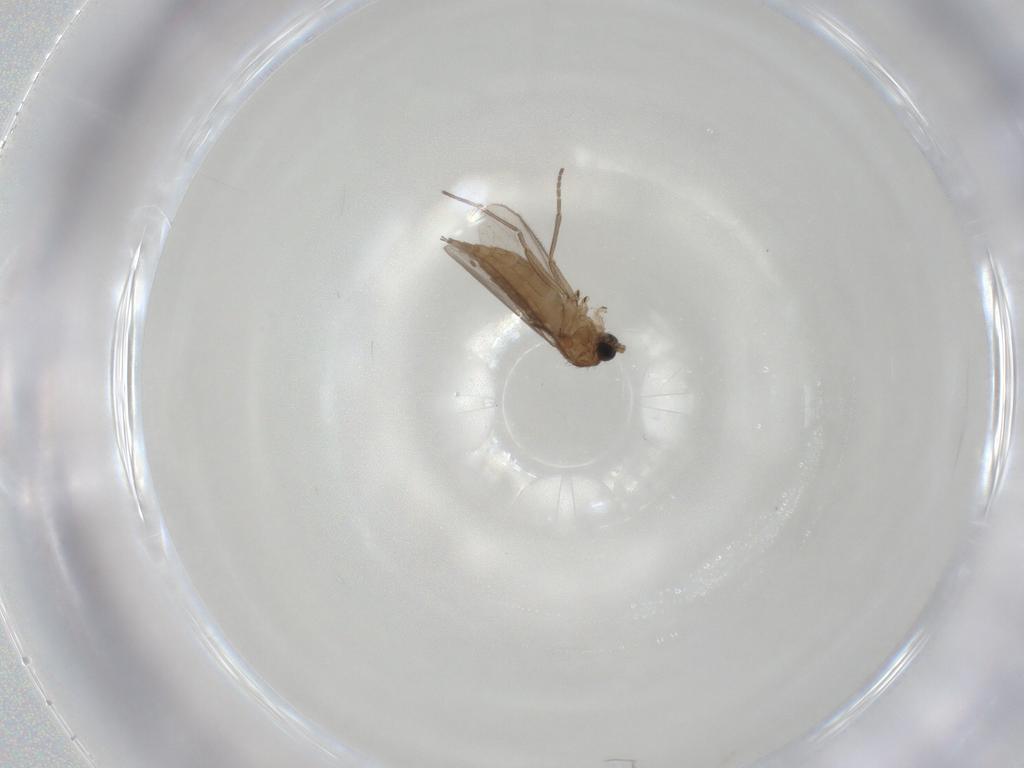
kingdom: Animalia
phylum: Arthropoda
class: Insecta
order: Diptera
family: Sciaridae
